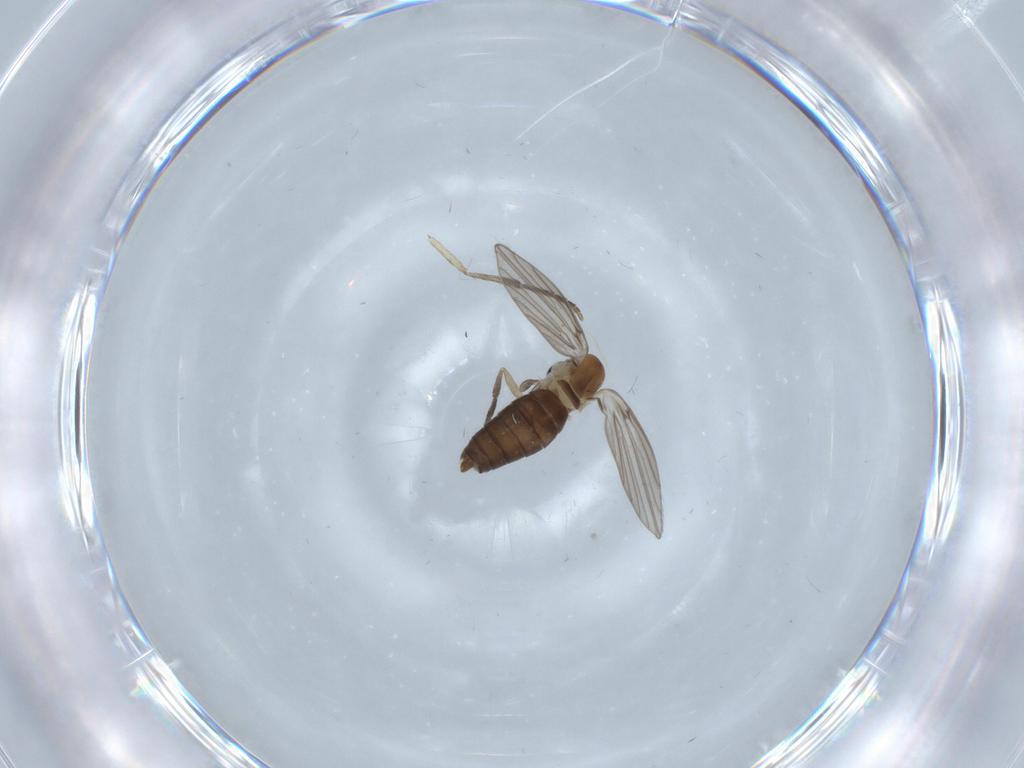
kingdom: Animalia
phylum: Arthropoda
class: Insecta
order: Diptera
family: Psychodidae
